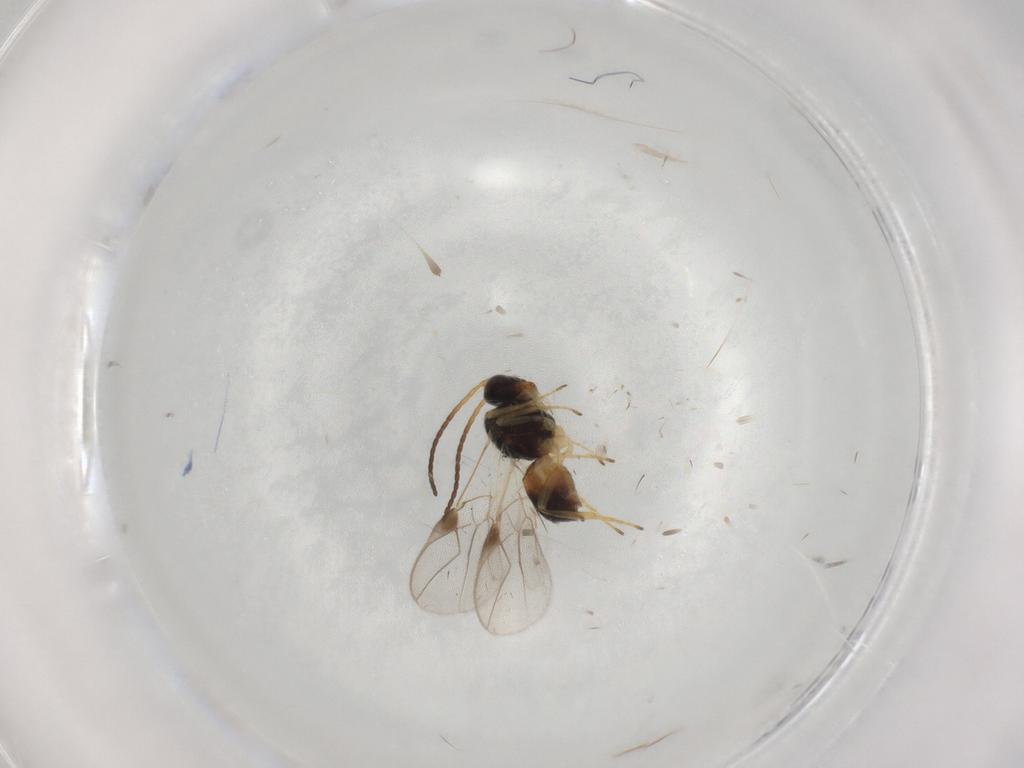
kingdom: Animalia
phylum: Arthropoda
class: Insecta
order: Hymenoptera
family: Braconidae
